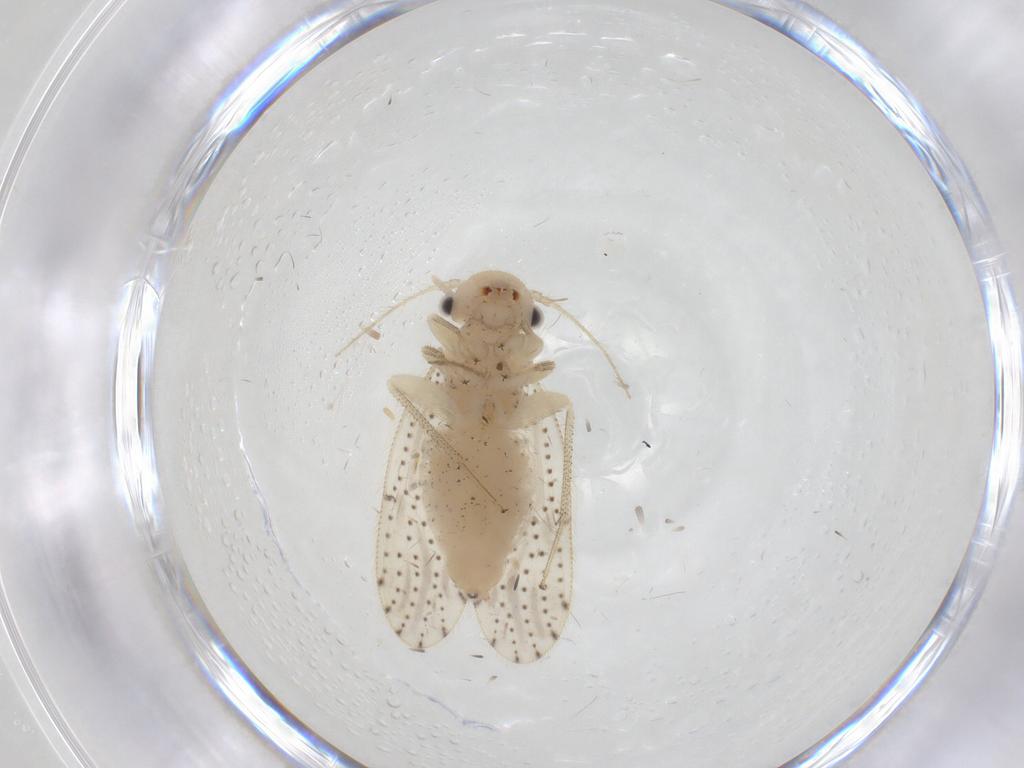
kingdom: Animalia
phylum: Arthropoda
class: Insecta
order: Psocodea
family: Myopsocidae
